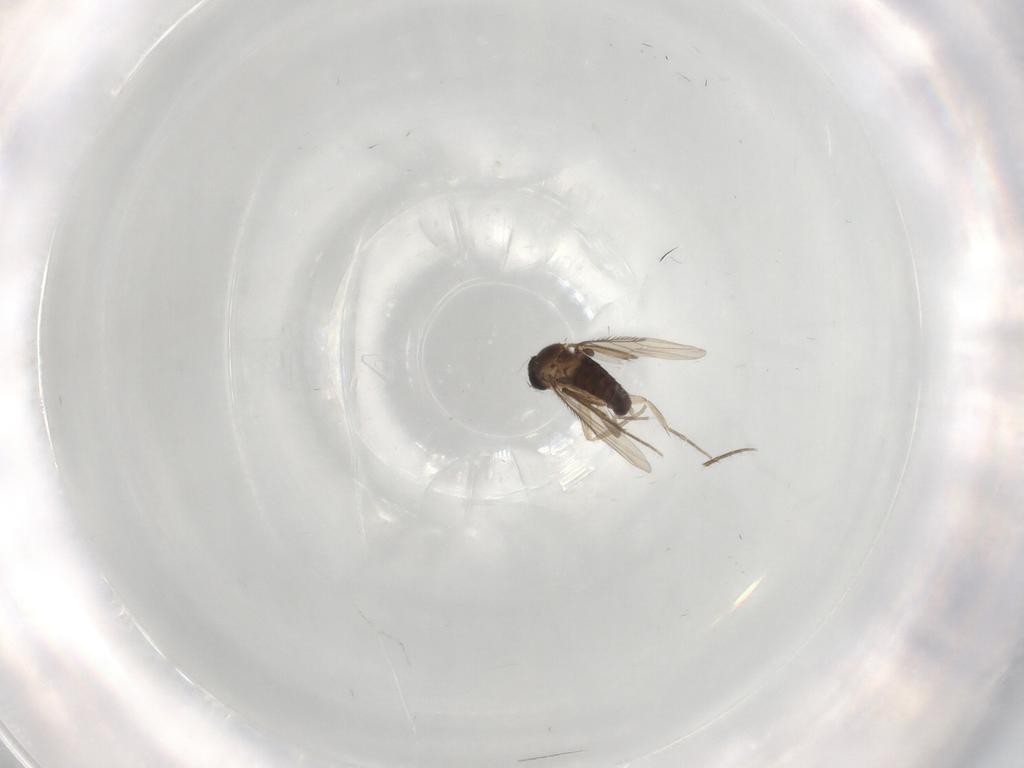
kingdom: Animalia
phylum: Arthropoda
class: Insecta
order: Diptera
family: Phoridae
